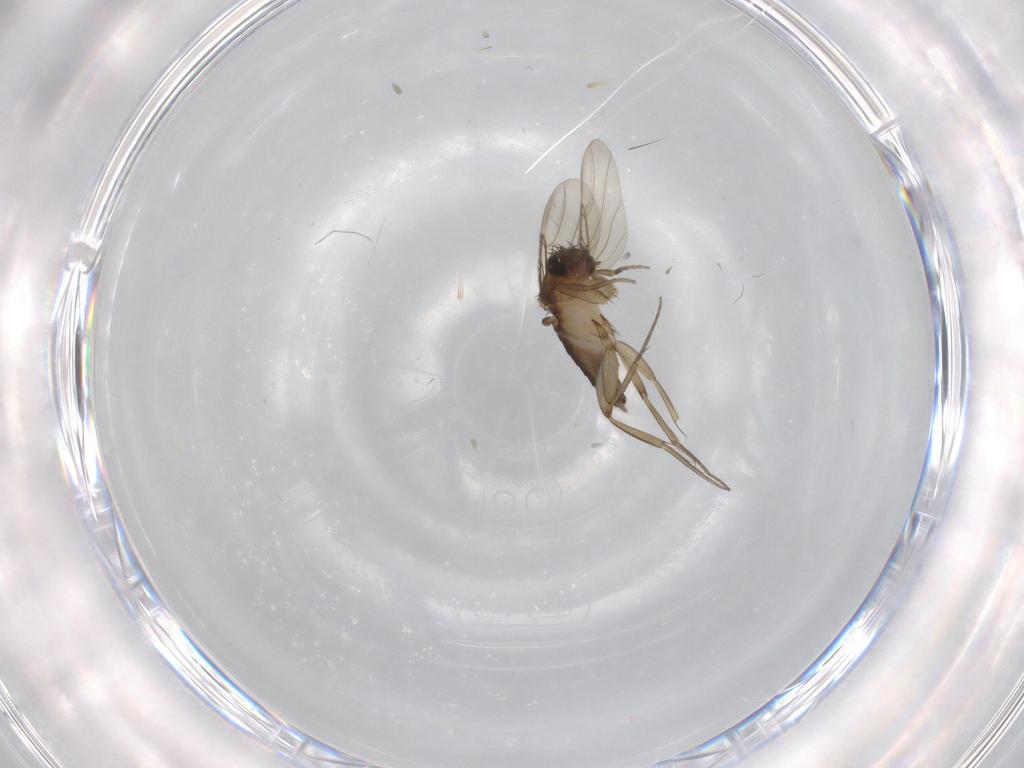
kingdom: Animalia
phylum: Arthropoda
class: Insecta
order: Diptera
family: Phoridae
